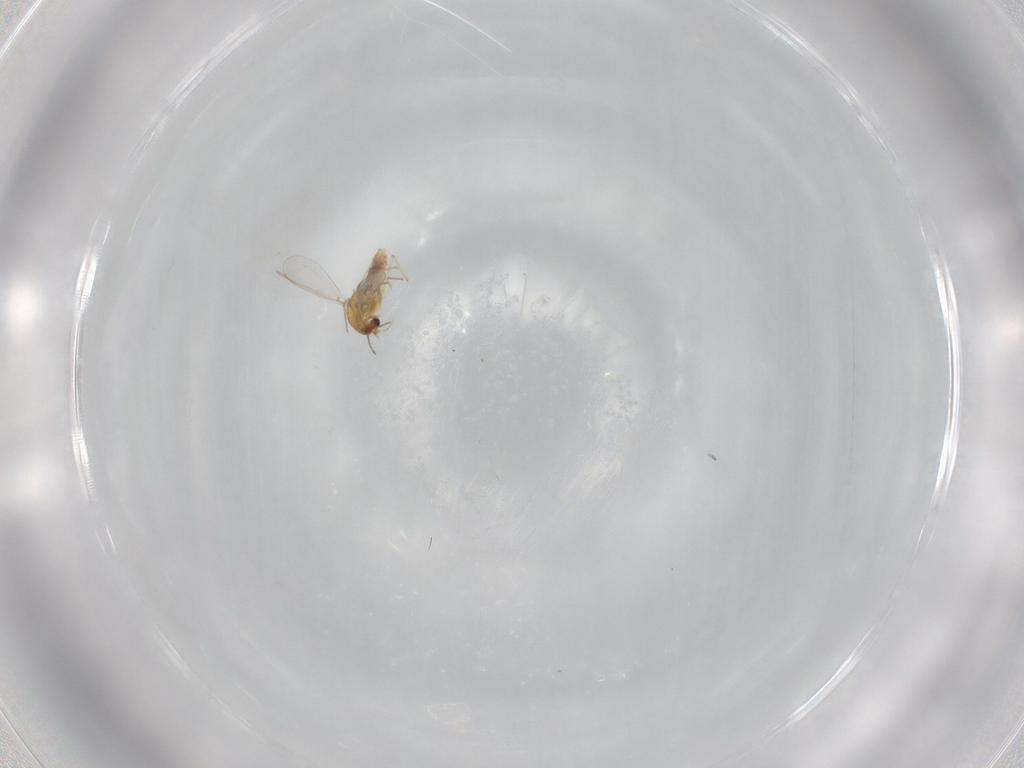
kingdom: Animalia
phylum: Arthropoda
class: Insecta
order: Diptera
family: Chironomidae
